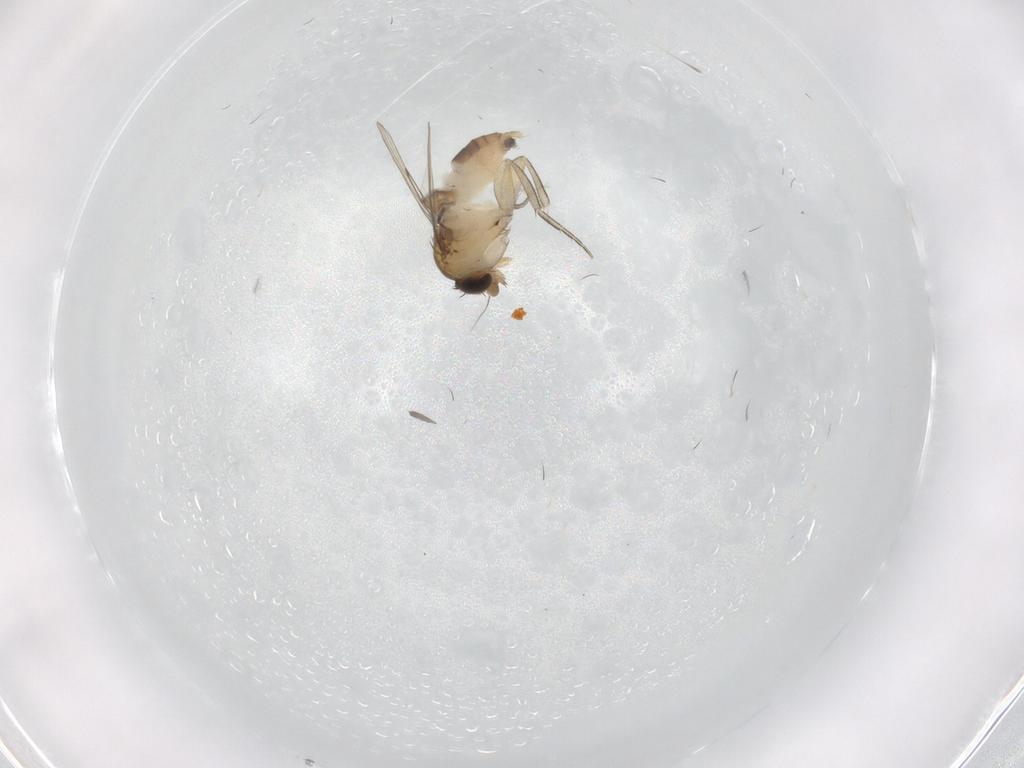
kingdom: Animalia
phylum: Arthropoda
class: Insecta
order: Diptera
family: Phoridae
